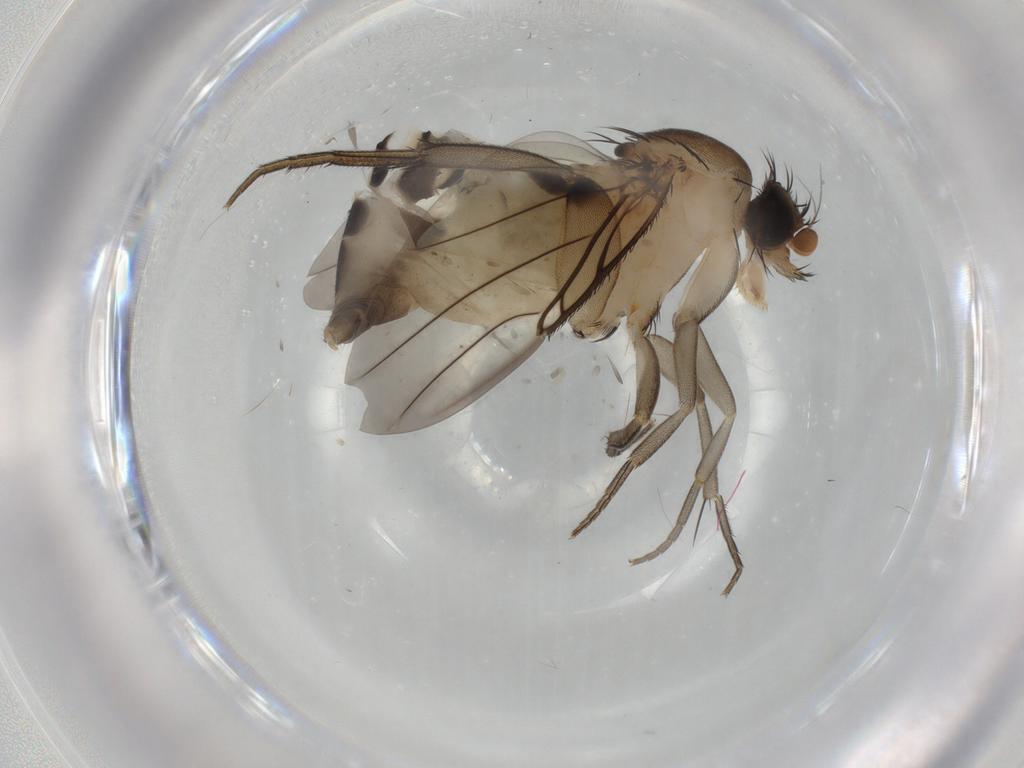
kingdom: Animalia
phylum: Arthropoda
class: Insecta
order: Diptera
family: Phoridae
